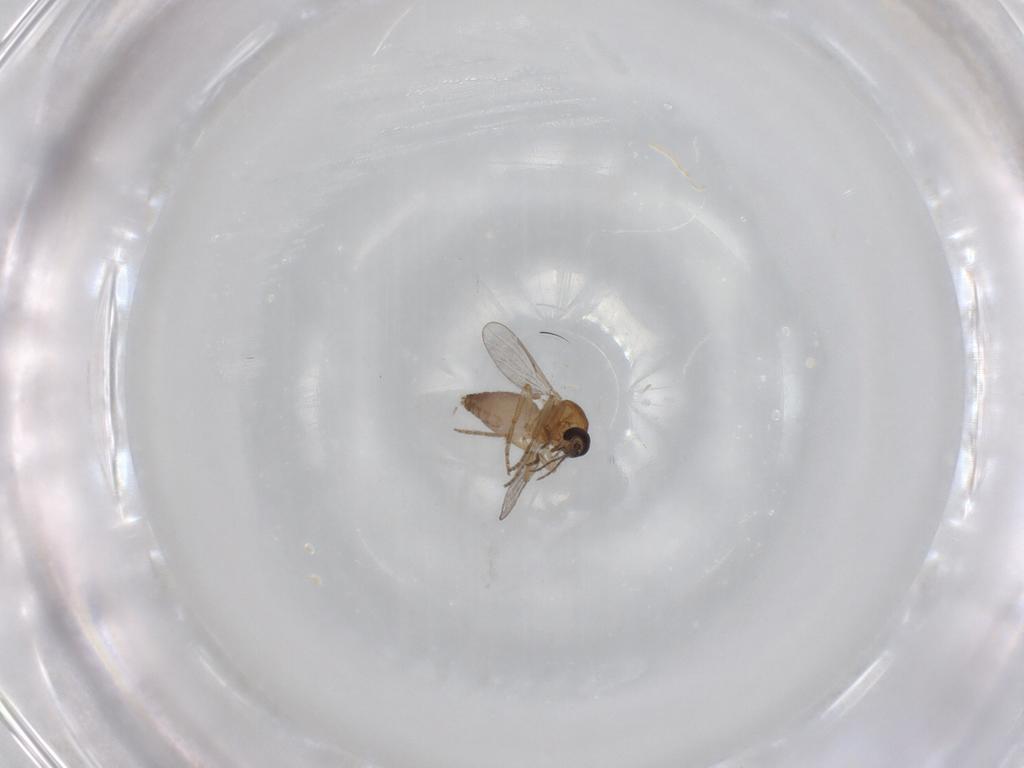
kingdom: Animalia
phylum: Arthropoda
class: Insecta
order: Diptera
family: Ceratopogonidae
